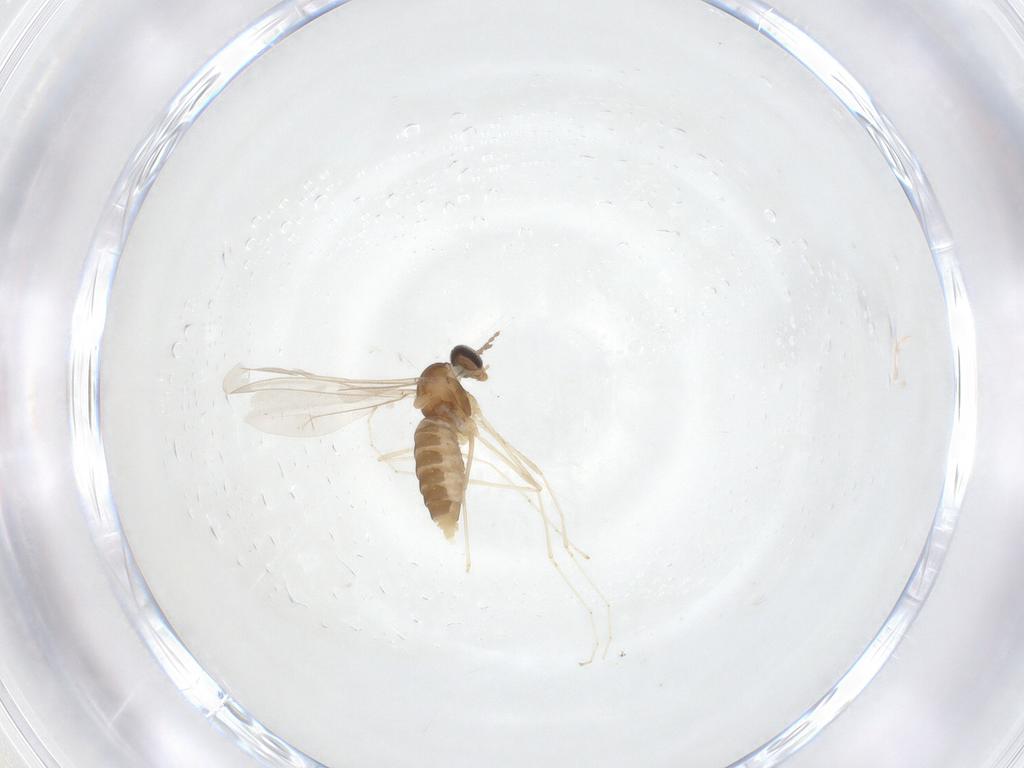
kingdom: Animalia
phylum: Arthropoda
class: Insecta
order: Diptera
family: Cecidomyiidae
